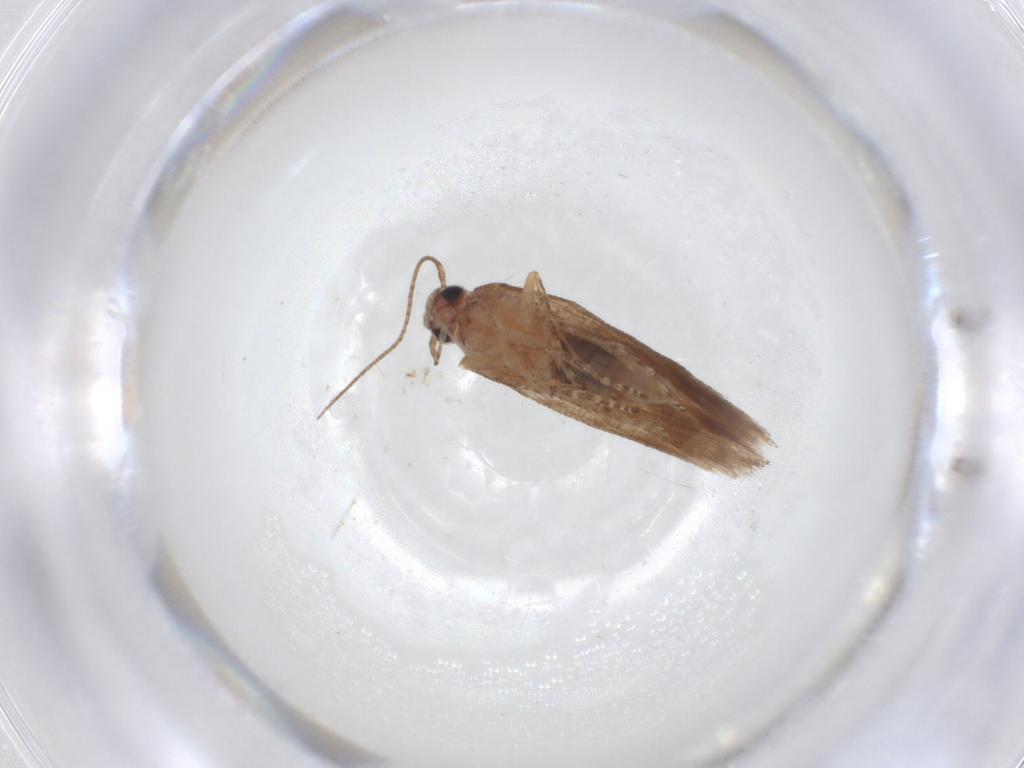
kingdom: Animalia
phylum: Arthropoda
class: Insecta
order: Lepidoptera
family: Gelechiidae
